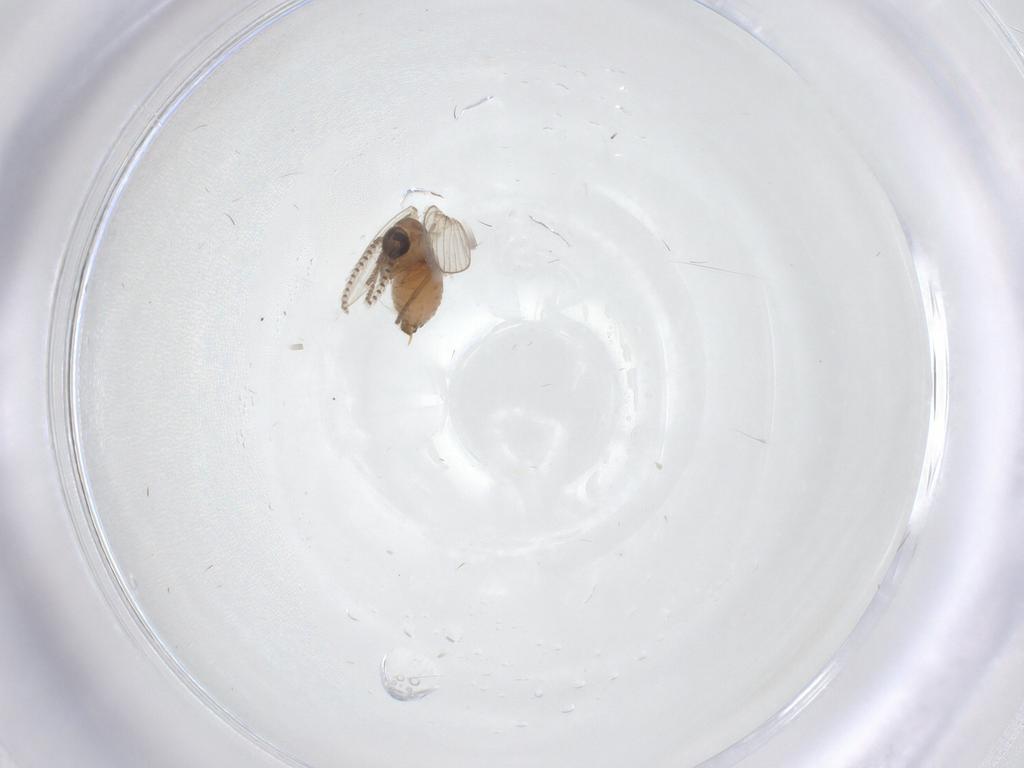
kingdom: Animalia
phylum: Arthropoda
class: Insecta
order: Diptera
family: Psychodidae
